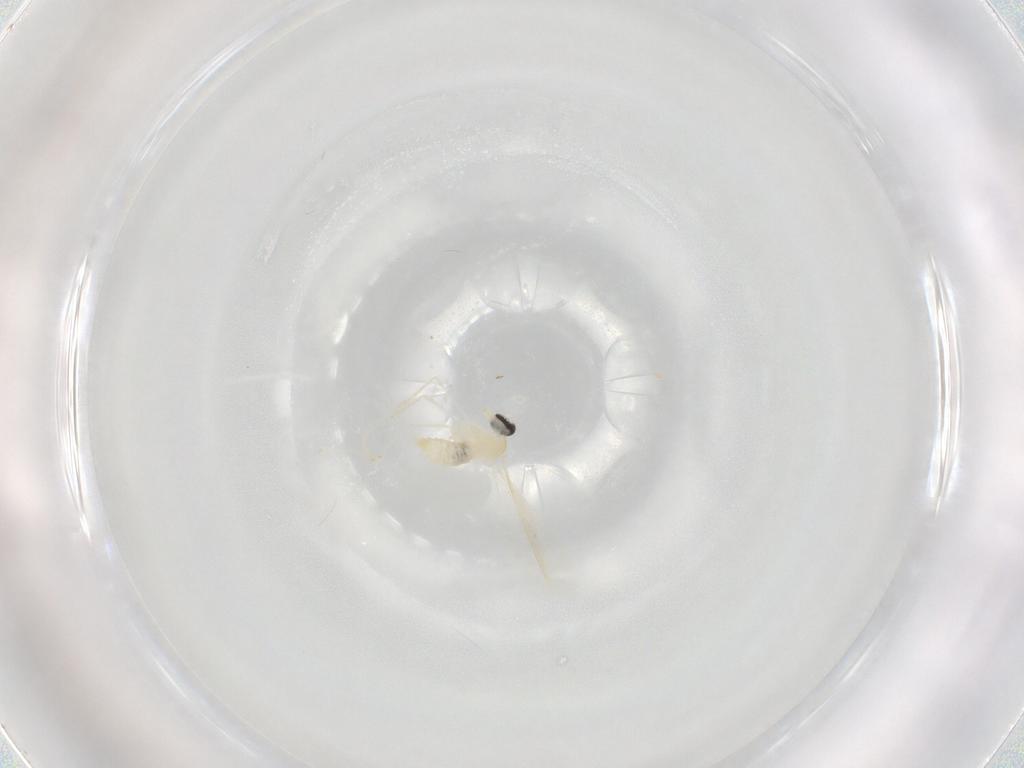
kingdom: Animalia
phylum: Arthropoda
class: Insecta
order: Diptera
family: Cecidomyiidae
